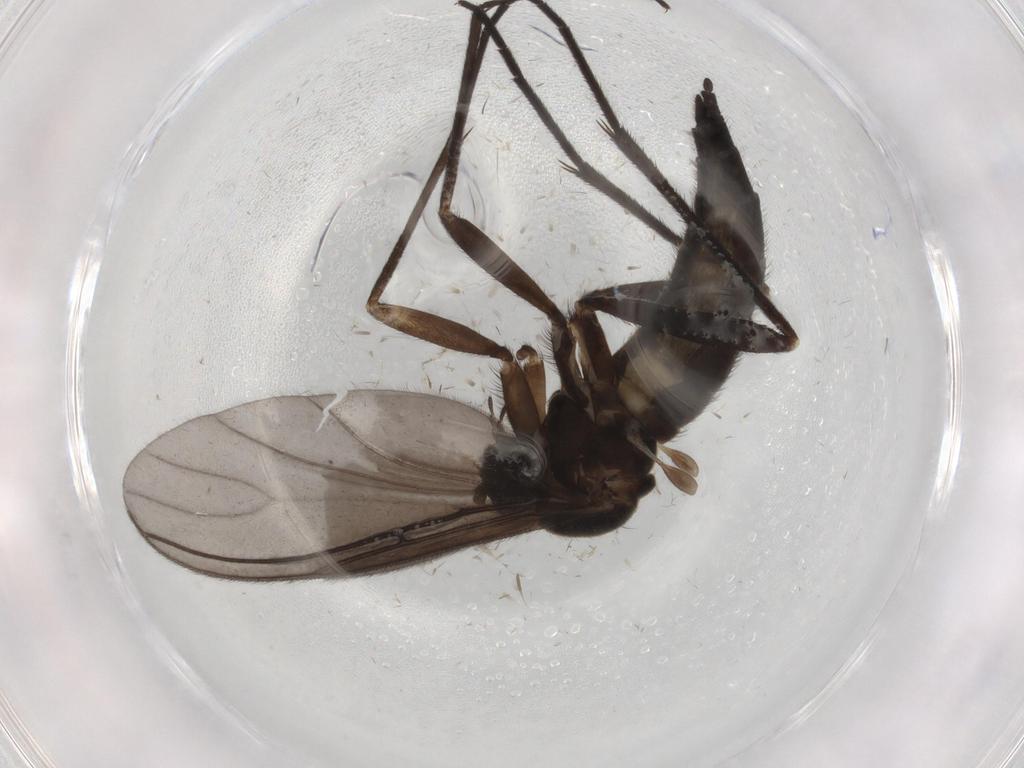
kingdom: Animalia
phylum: Arthropoda
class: Insecta
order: Diptera
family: Sciaridae
